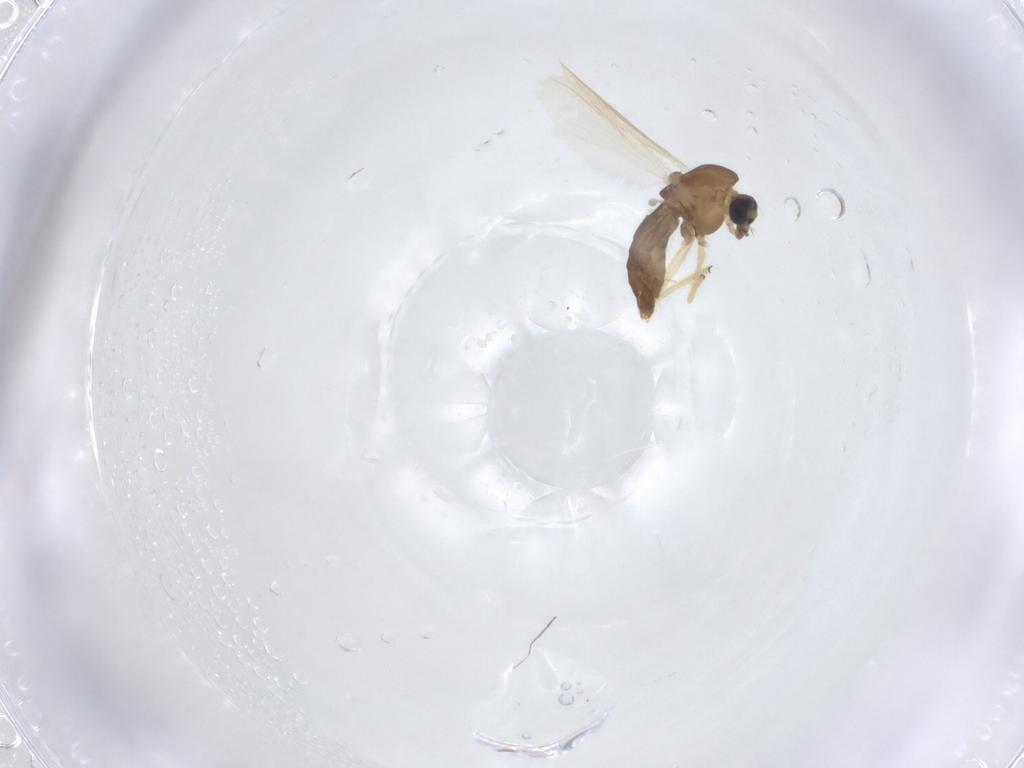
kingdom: Animalia
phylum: Arthropoda
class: Insecta
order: Diptera
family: Chironomidae
